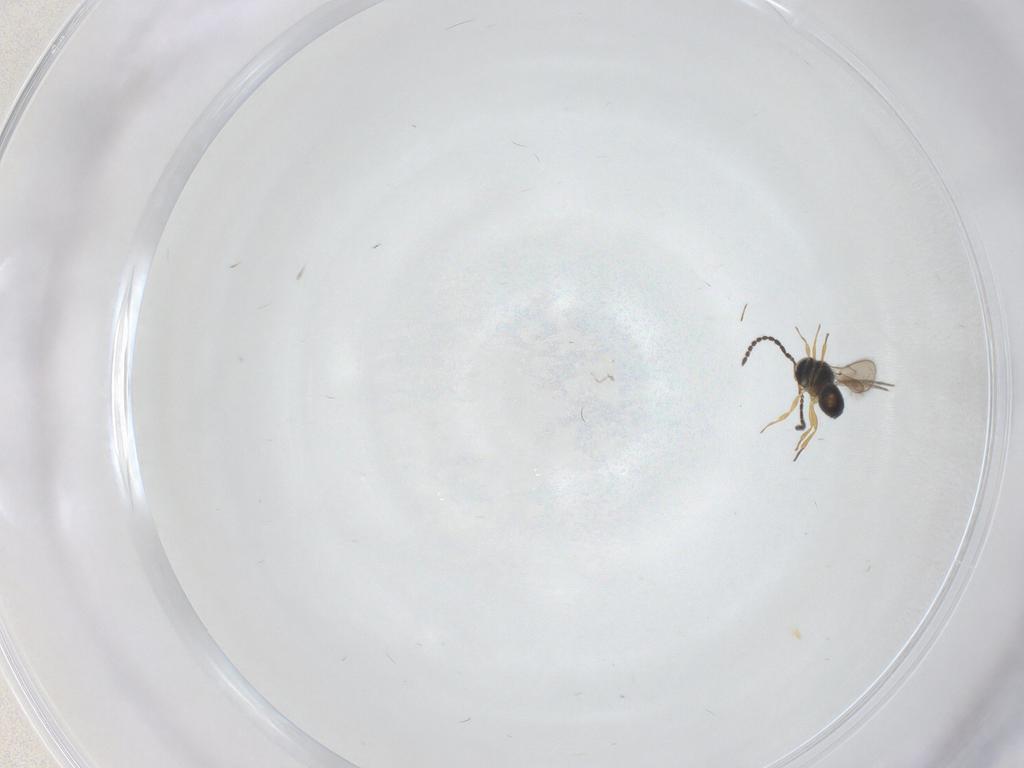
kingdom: Animalia
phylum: Arthropoda
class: Insecta
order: Hymenoptera
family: Scelionidae
